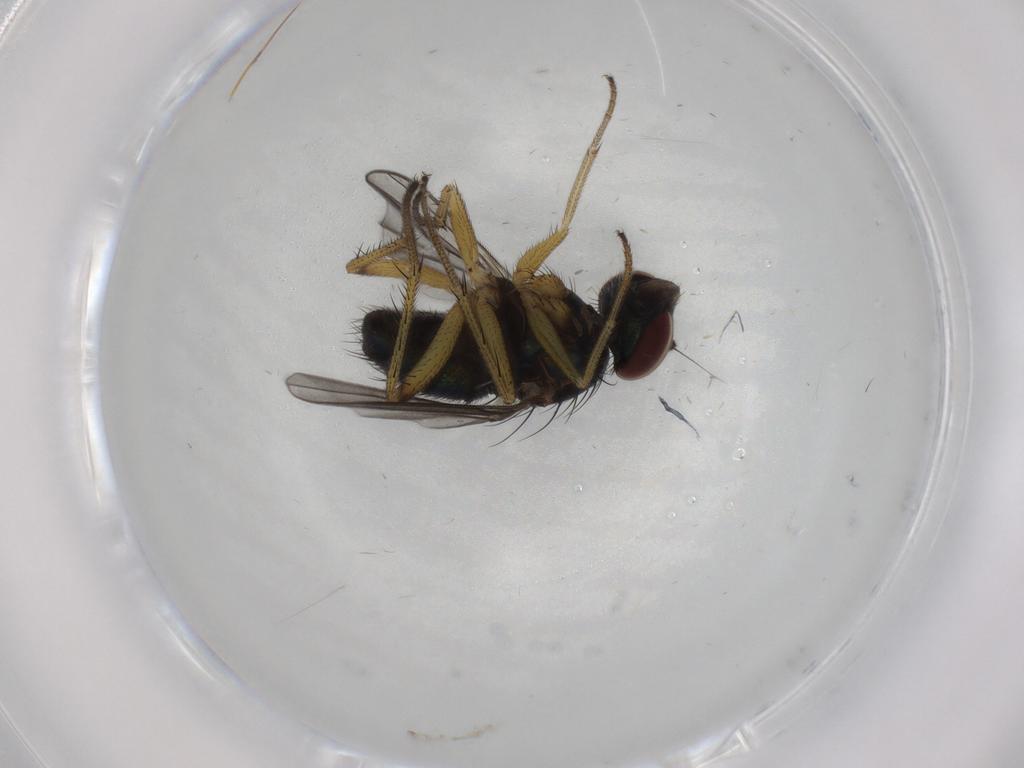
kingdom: Animalia
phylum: Arthropoda
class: Insecta
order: Diptera
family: Dolichopodidae
